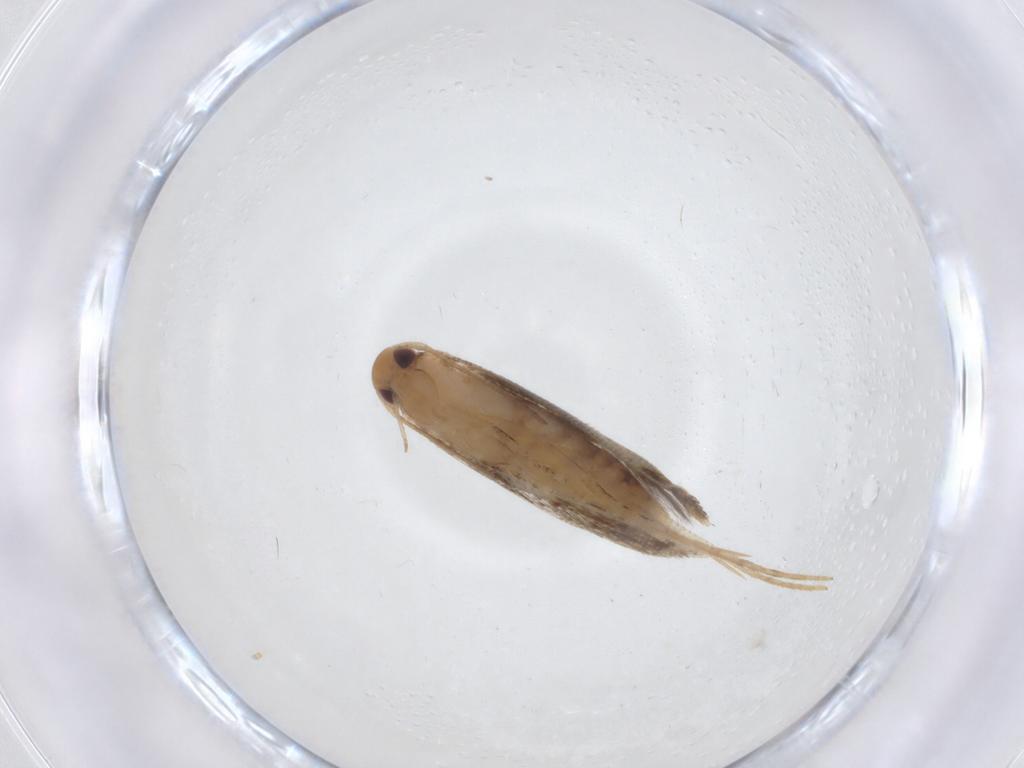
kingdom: Animalia
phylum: Arthropoda
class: Insecta
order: Lepidoptera
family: Momphidae
